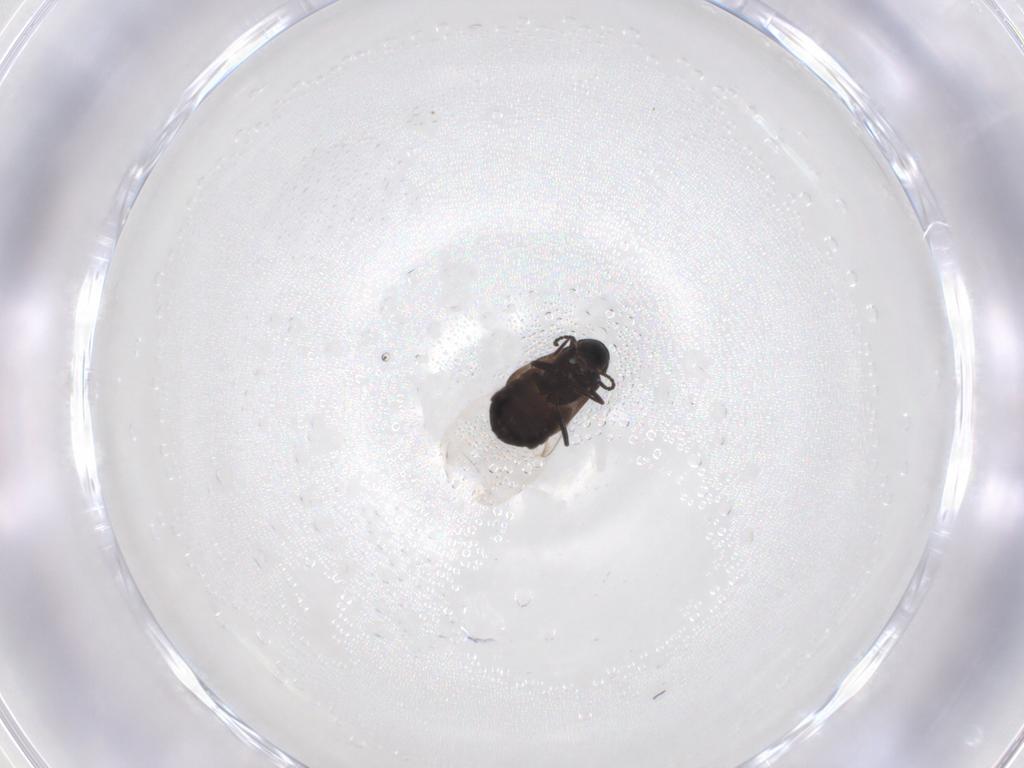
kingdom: Animalia
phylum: Arthropoda
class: Insecta
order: Coleoptera
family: Melyridae
